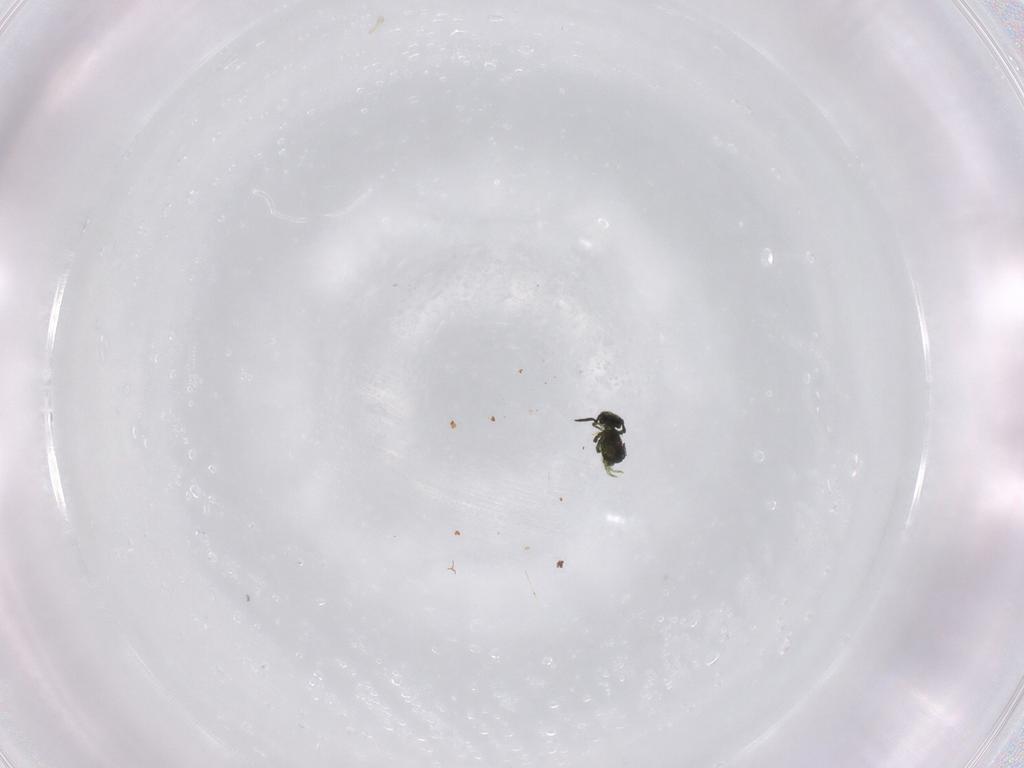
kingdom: Animalia
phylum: Arthropoda
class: Collembola
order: Symphypleona
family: Sminthuridae
